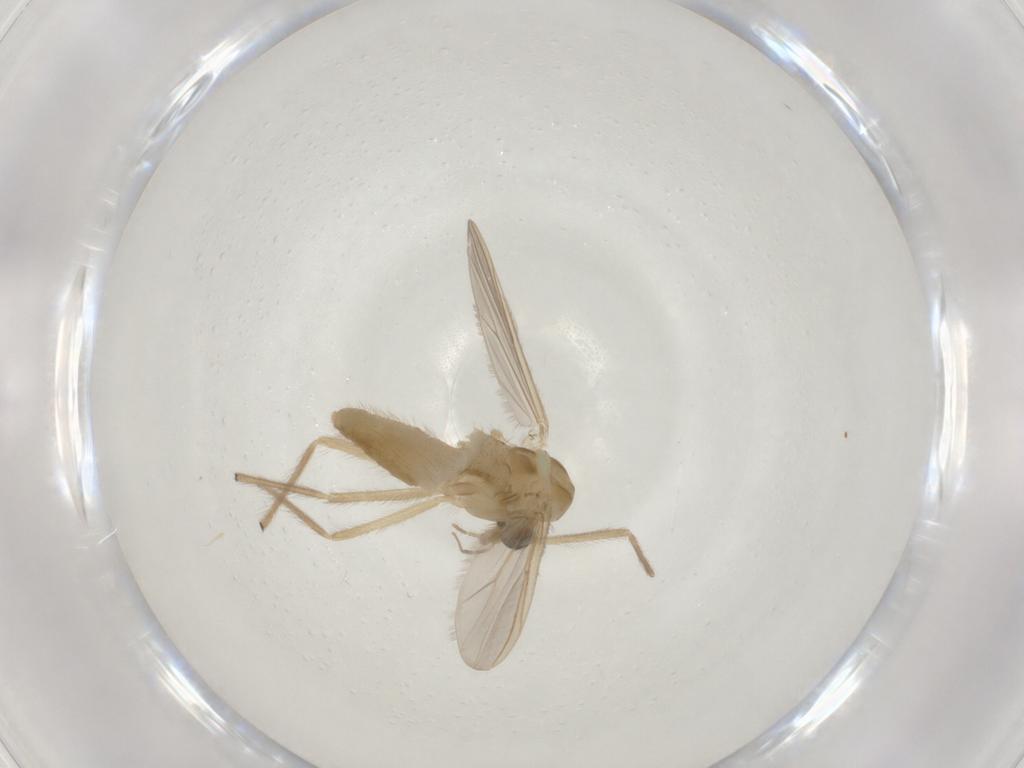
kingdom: Animalia
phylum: Arthropoda
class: Insecta
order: Diptera
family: Chironomidae
